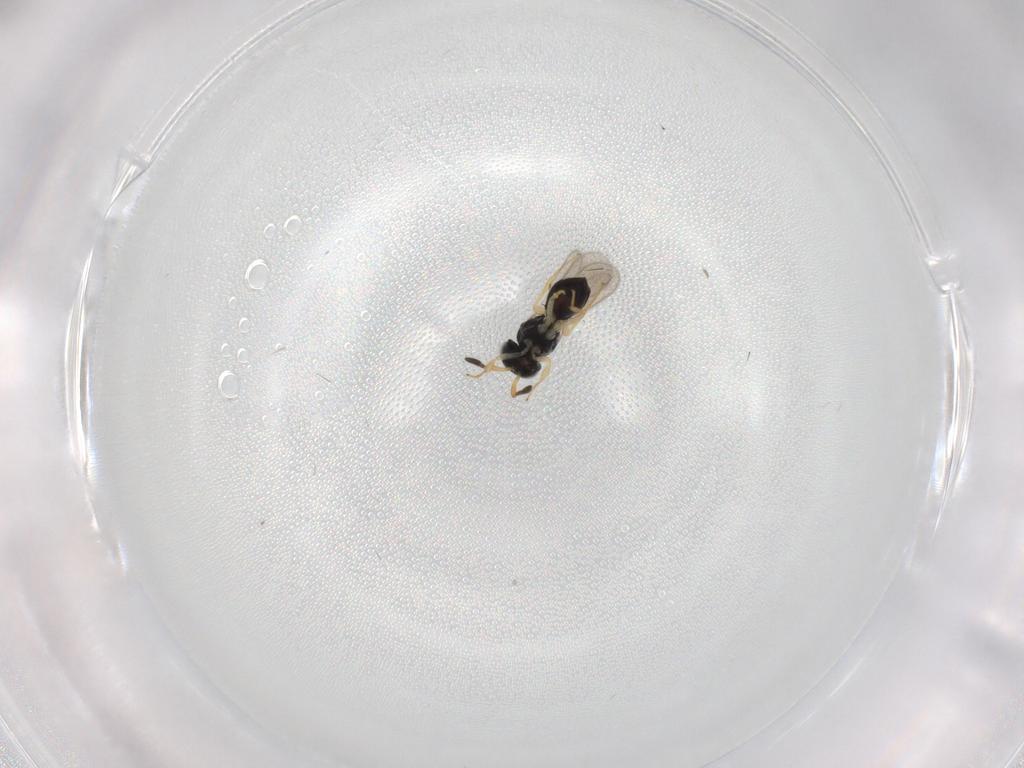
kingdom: Animalia
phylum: Arthropoda
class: Insecta
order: Hymenoptera
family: Scelionidae
